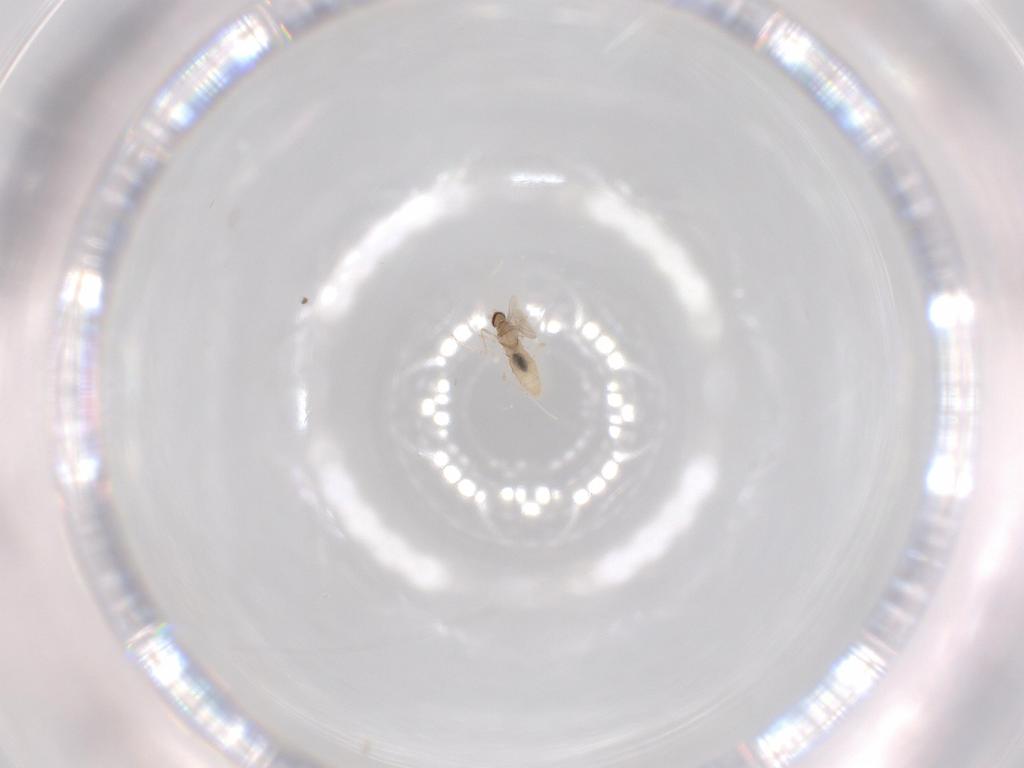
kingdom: Animalia
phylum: Arthropoda
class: Insecta
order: Diptera
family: Cecidomyiidae
